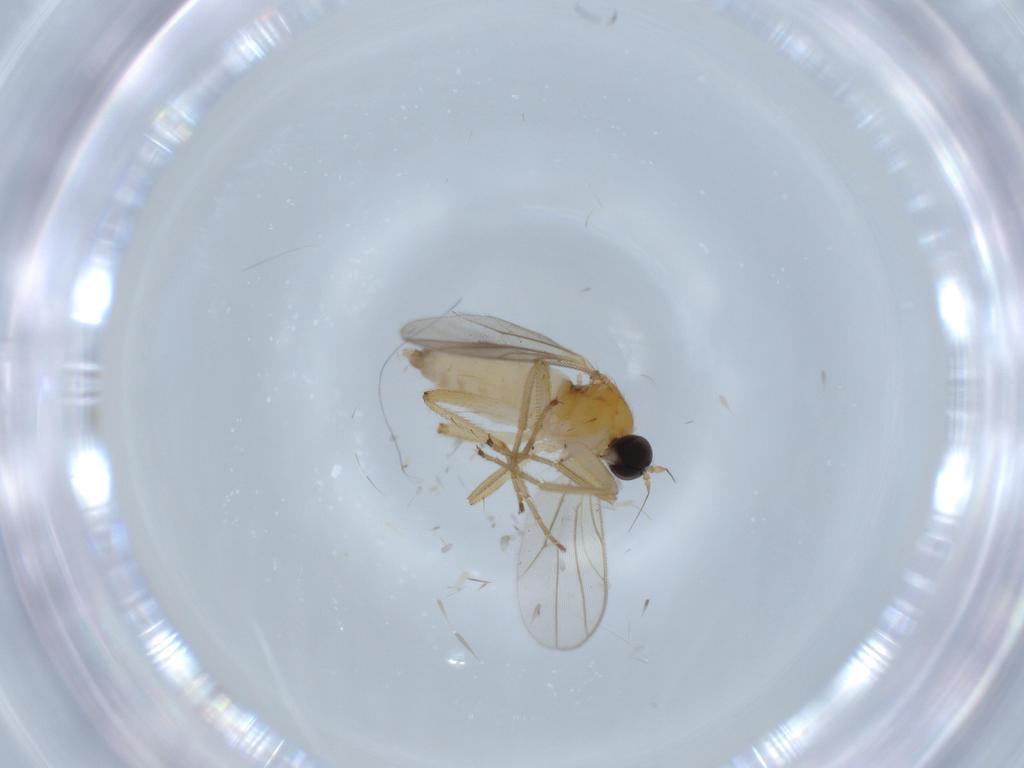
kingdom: Animalia
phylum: Arthropoda
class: Insecta
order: Diptera
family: Hybotidae
